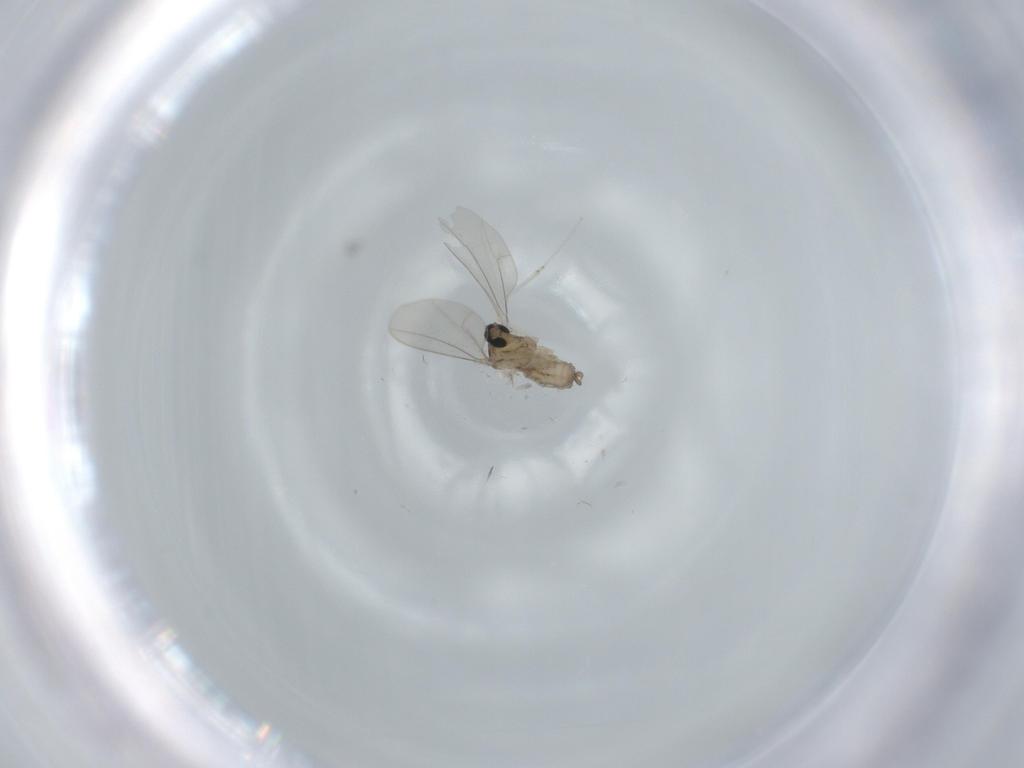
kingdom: Animalia
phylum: Arthropoda
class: Insecta
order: Diptera
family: Cecidomyiidae
